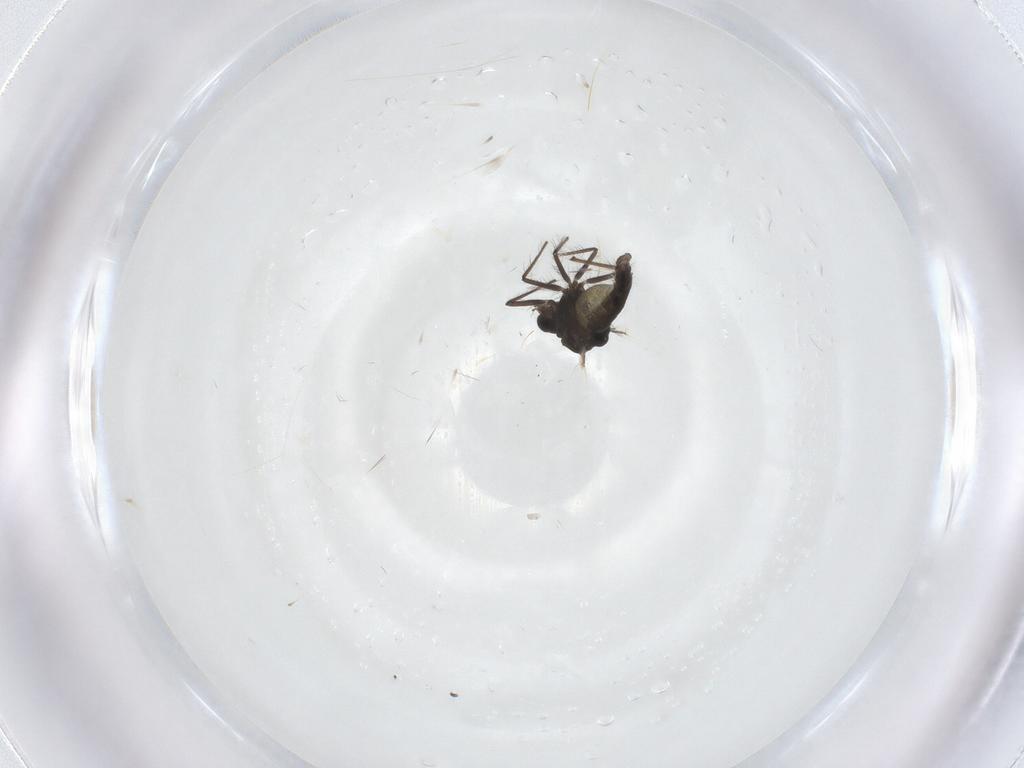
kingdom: Animalia
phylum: Arthropoda
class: Insecta
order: Diptera
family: Chironomidae
